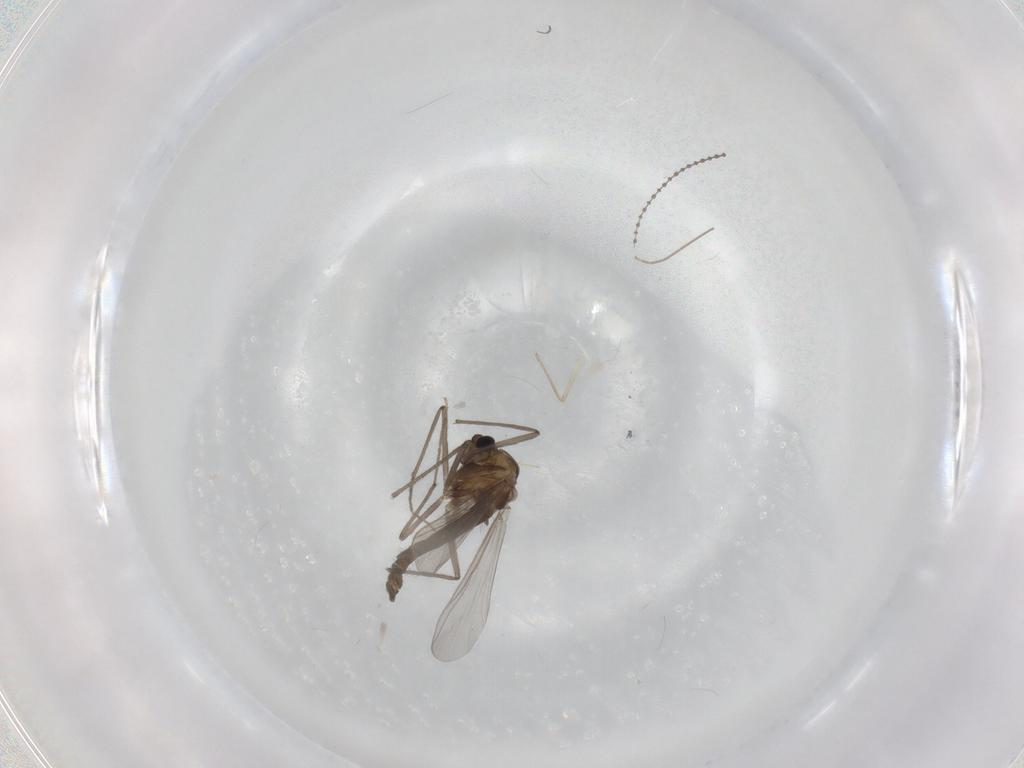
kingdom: Animalia
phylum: Arthropoda
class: Insecta
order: Diptera
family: Chironomidae
